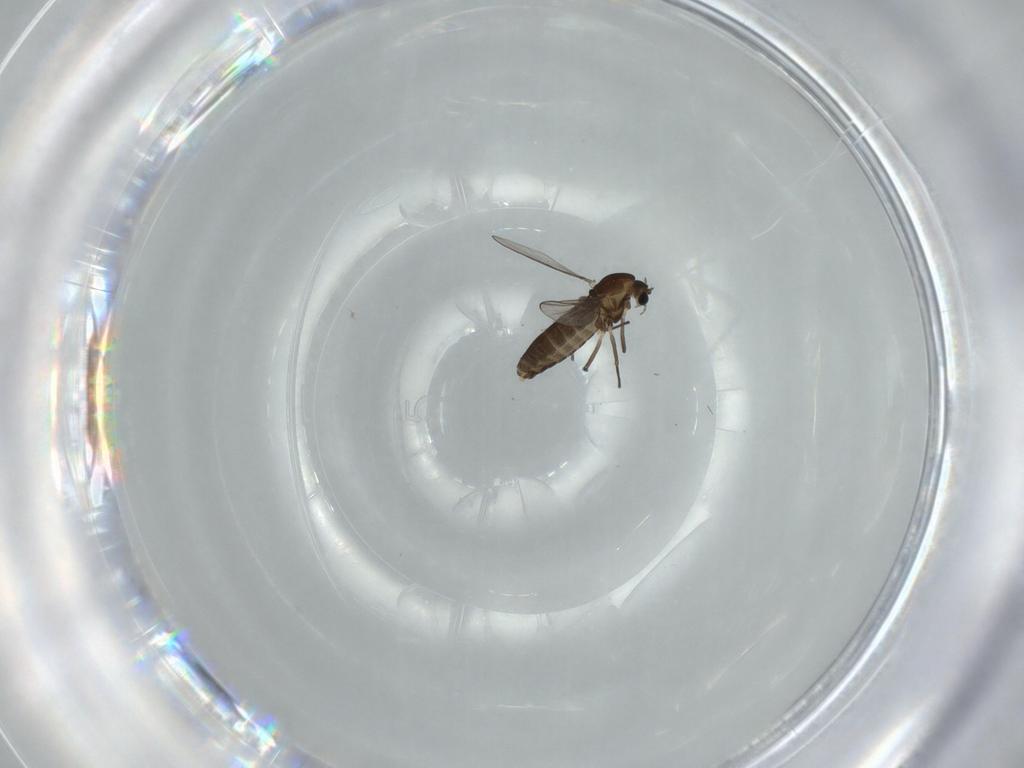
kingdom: Animalia
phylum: Arthropoda
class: Insecta
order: Diptera
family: Chironomidae
